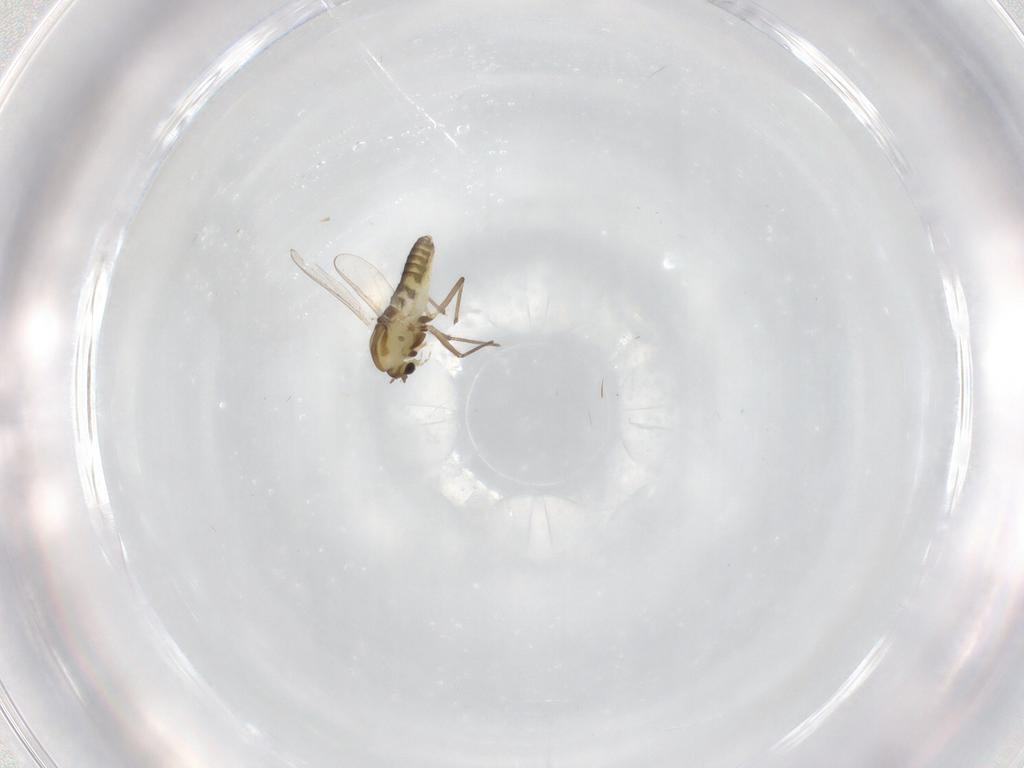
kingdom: Animalia
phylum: Arthropoda
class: Insecta
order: Diptera
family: Chironomidae
